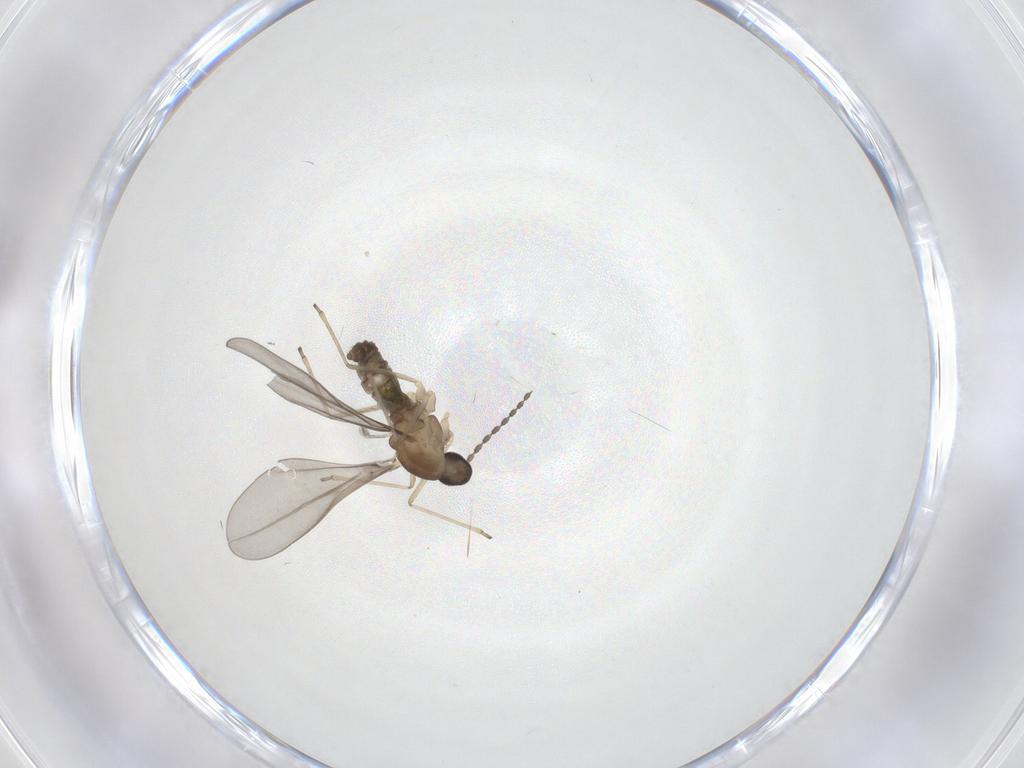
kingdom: Animalia
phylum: Arthropoda
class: Insecta
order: Diptera
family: Cecidomyiidae
